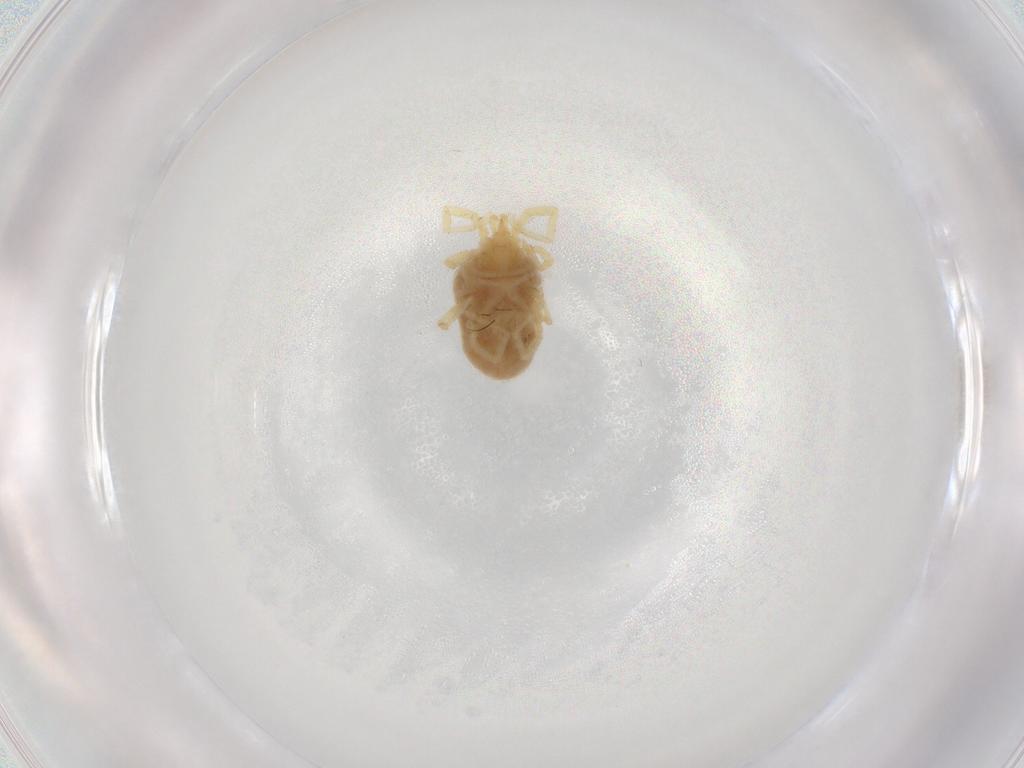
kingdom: Animalia
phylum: Arthropoda
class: Arachnida
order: Trombidiformes
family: Erythraeidae
